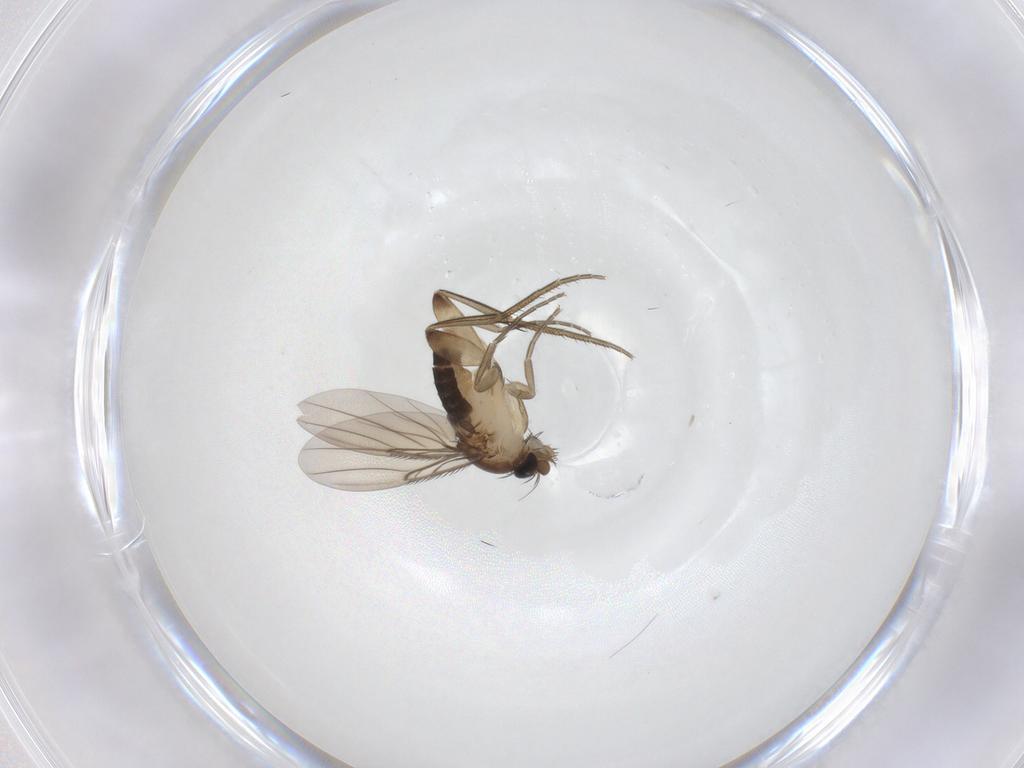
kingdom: Animalia
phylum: Arthropoda
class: Insecta
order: Diptera
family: Phoridae
